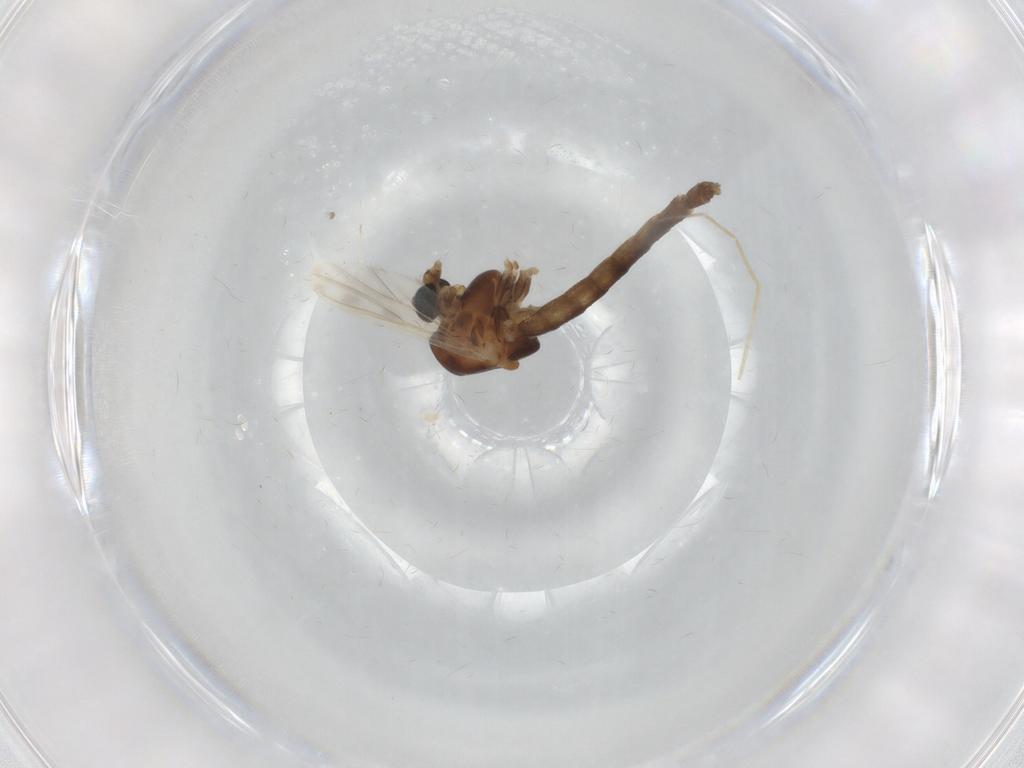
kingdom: Animalia
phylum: Arthropoda
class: Insecta
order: Diptera
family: Chironomidae
